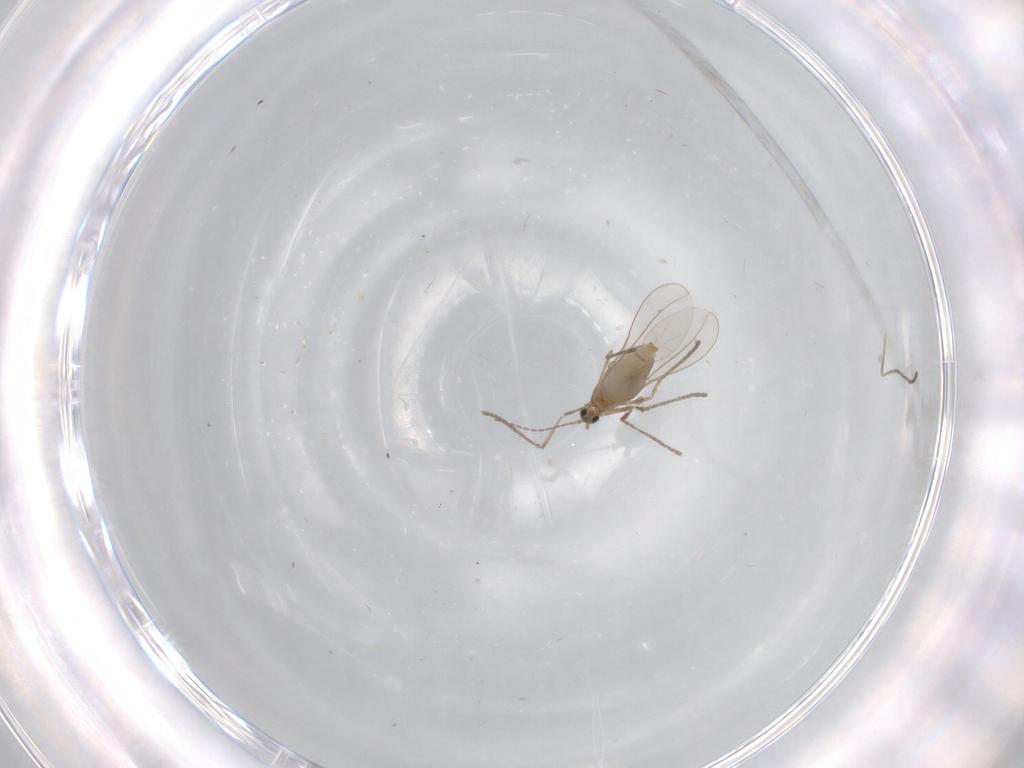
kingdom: Animalia
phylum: Arthropoda
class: Insecta
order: Diptera
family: Cecidomyiidae
